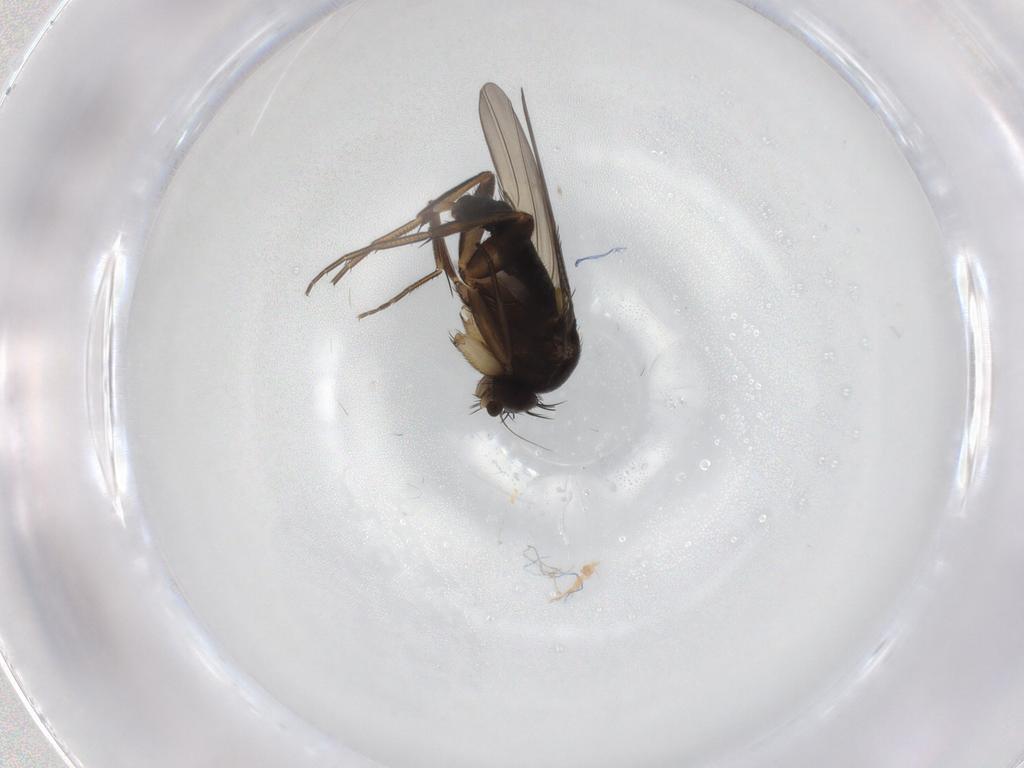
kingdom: Animalia
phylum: Arthropoda
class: Insecta
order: Diptera
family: Phoridae
